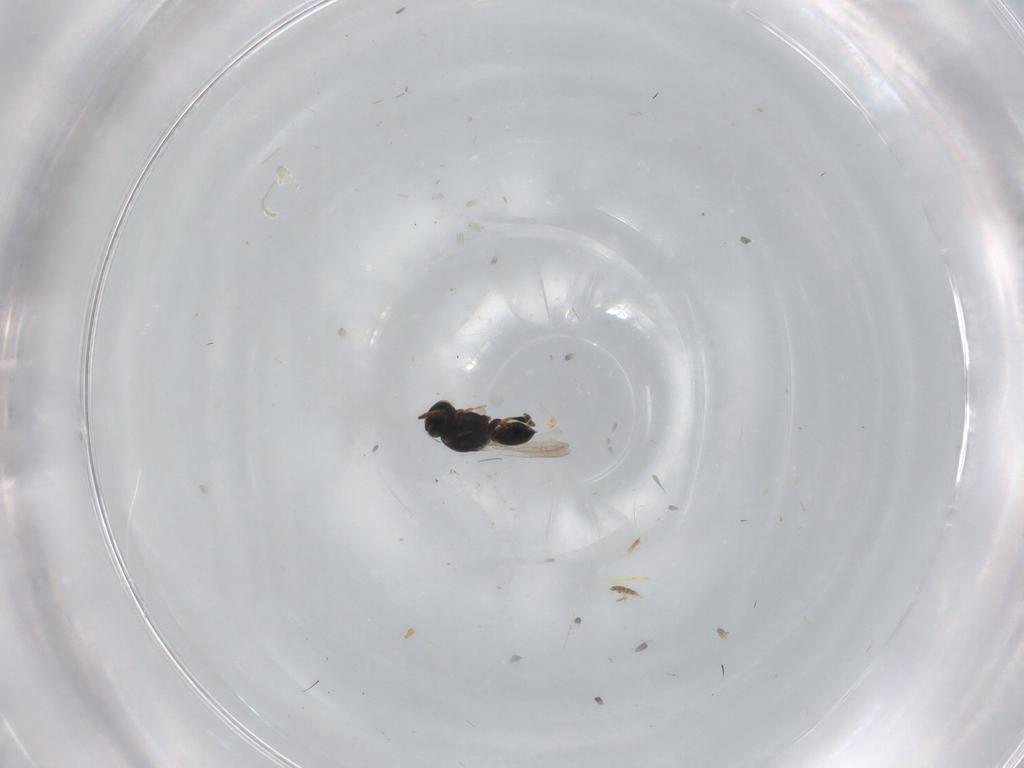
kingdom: Animalia
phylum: Arthropoda
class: Insecta
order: Hymenoptera
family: Platygastridae
